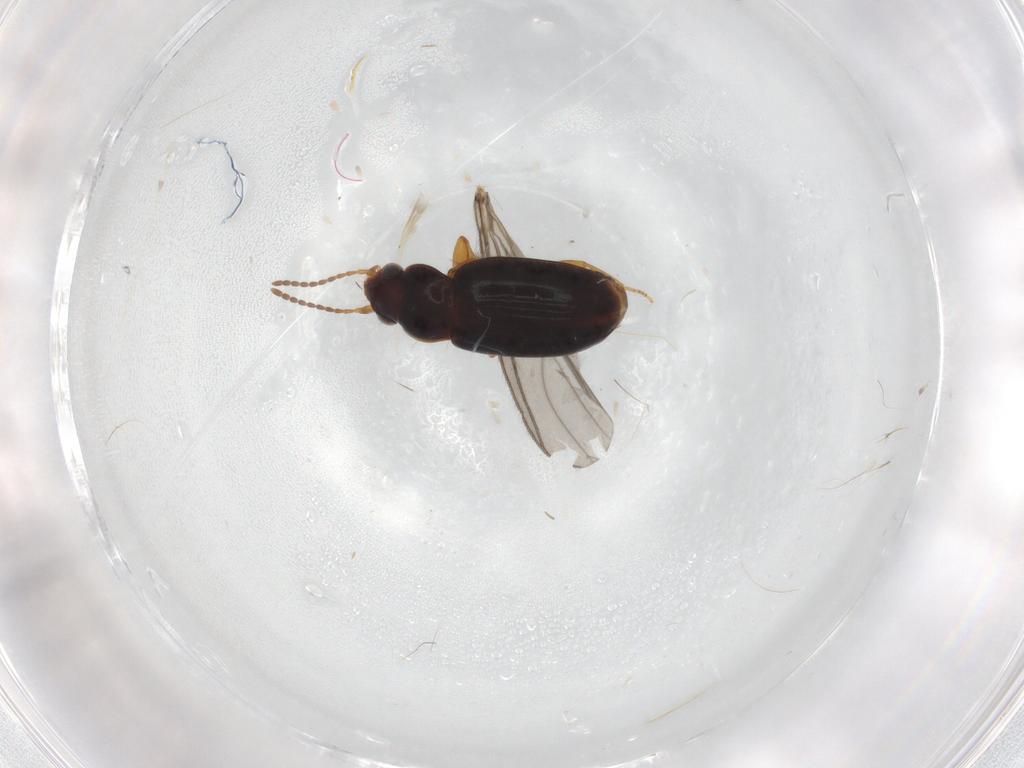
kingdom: Animalia
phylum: Arthropoda
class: Insecta
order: Coleoptera
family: Carabidae
